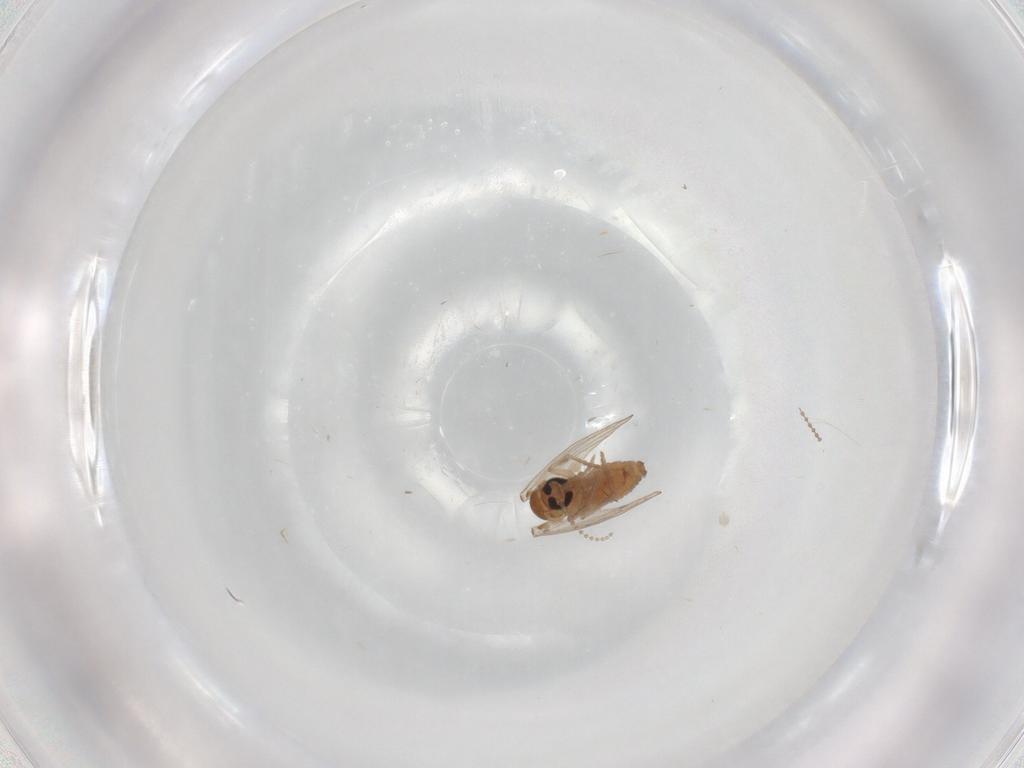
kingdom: Animalia
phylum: Arthropoda
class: Insecta
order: Diptera
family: Psychodidae
